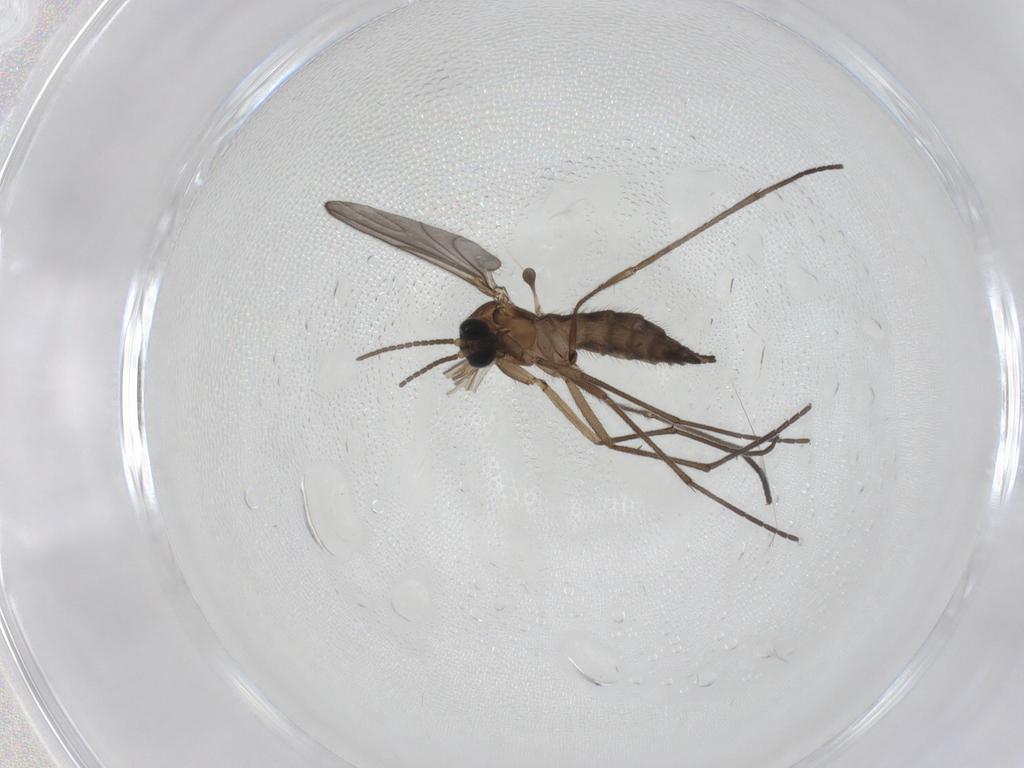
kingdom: Animalia
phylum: Arthropoda
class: Insecta
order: Diptera
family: Sciaridae
